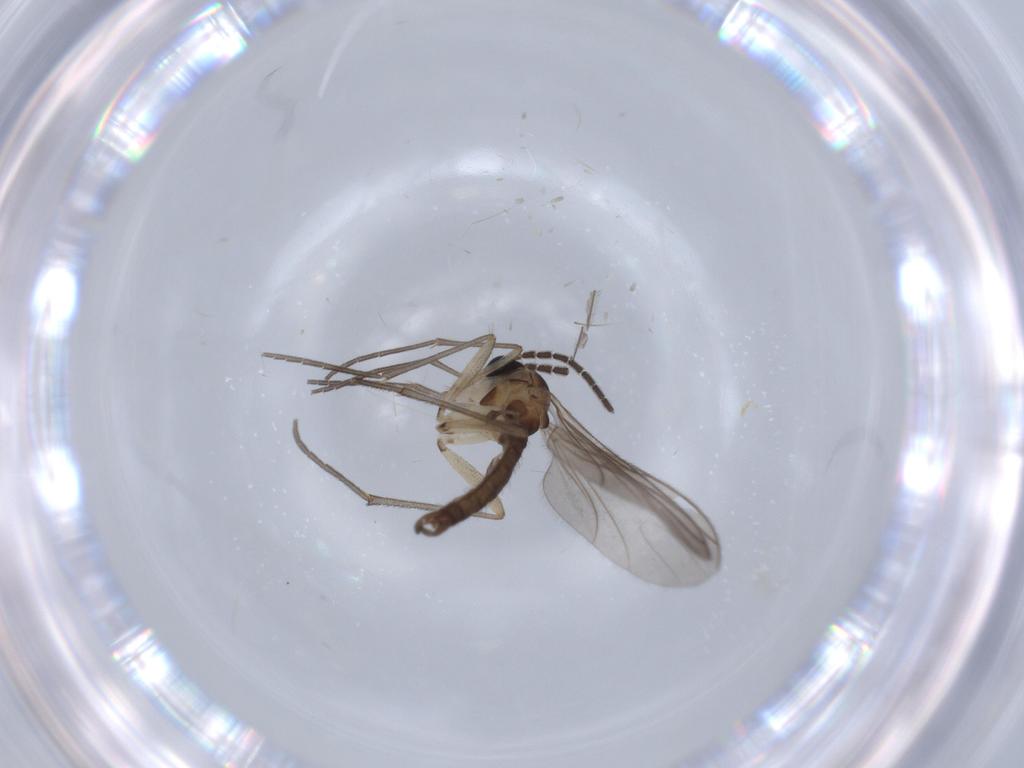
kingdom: Animalia
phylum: Arthropoda
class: Insecta
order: Diptera
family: Sciaridae
